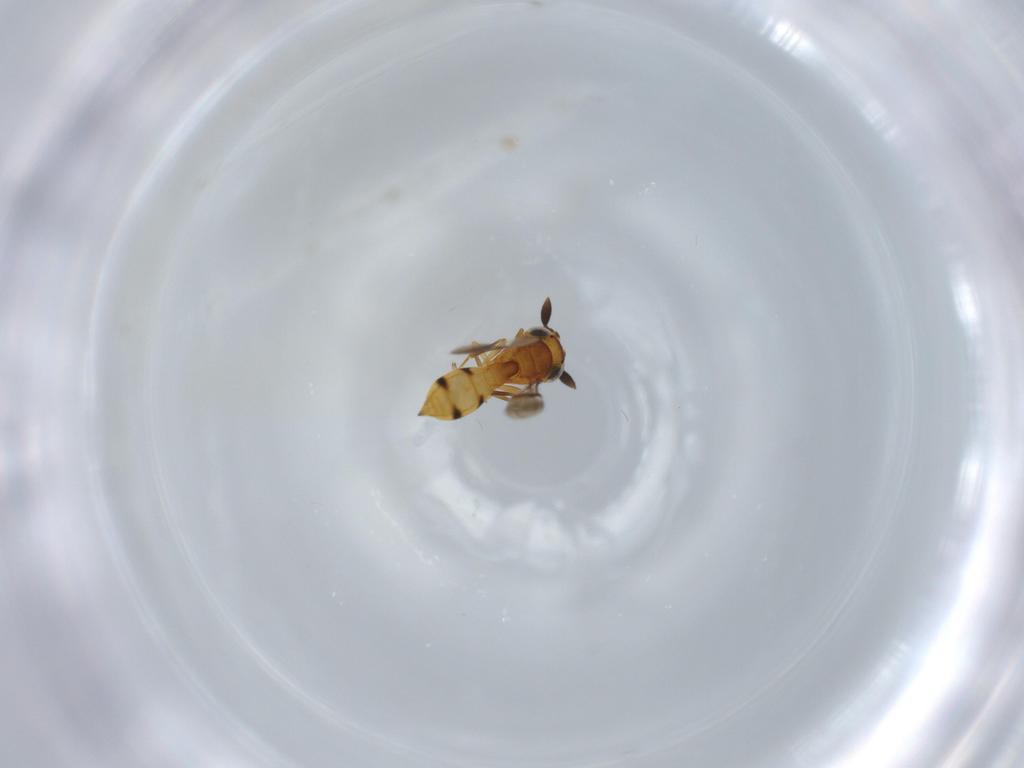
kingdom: Animalia
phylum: Arthropoda
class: Insecta
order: Hymenoptera
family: Scelionidae
